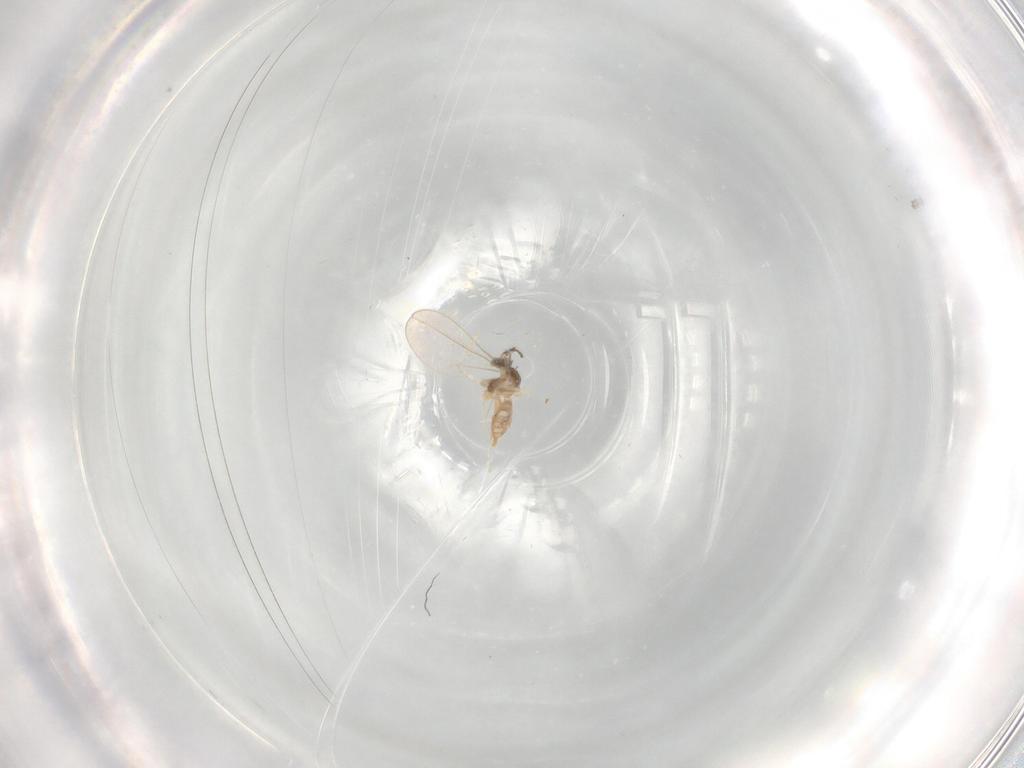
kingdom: Animalia
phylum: Arthropoda
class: Insecta
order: Diptera
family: Cecidomyiidae
